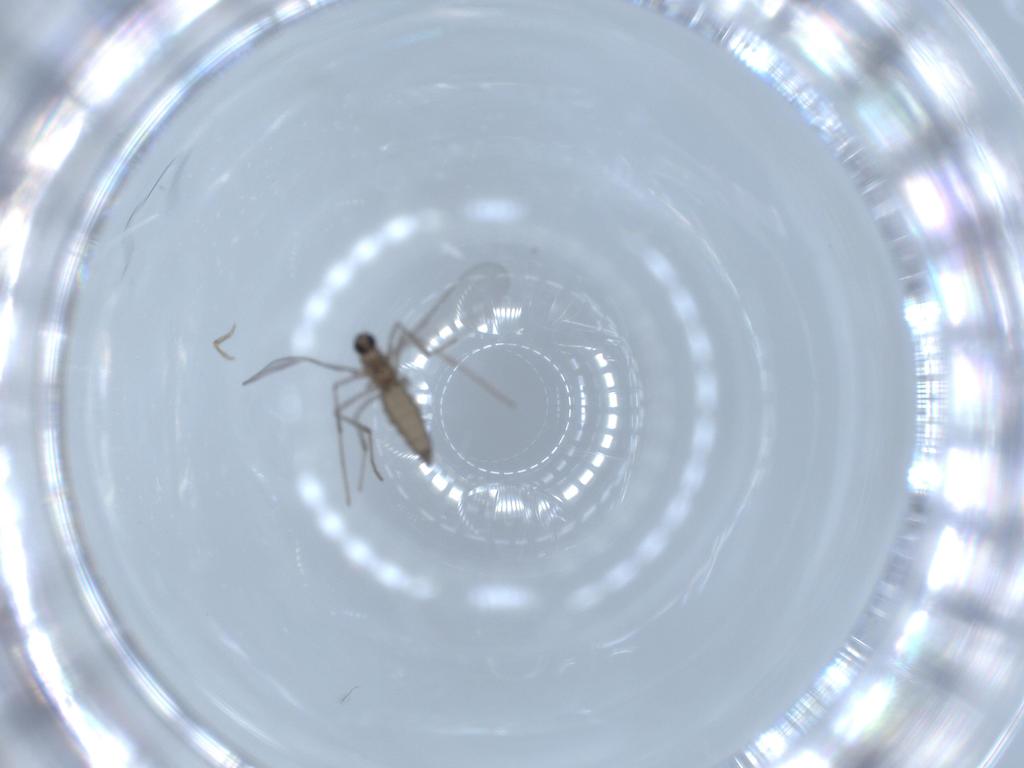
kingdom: Animalia
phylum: Arthropoda
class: Insecta
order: Diptera
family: Cecidomyiidae
